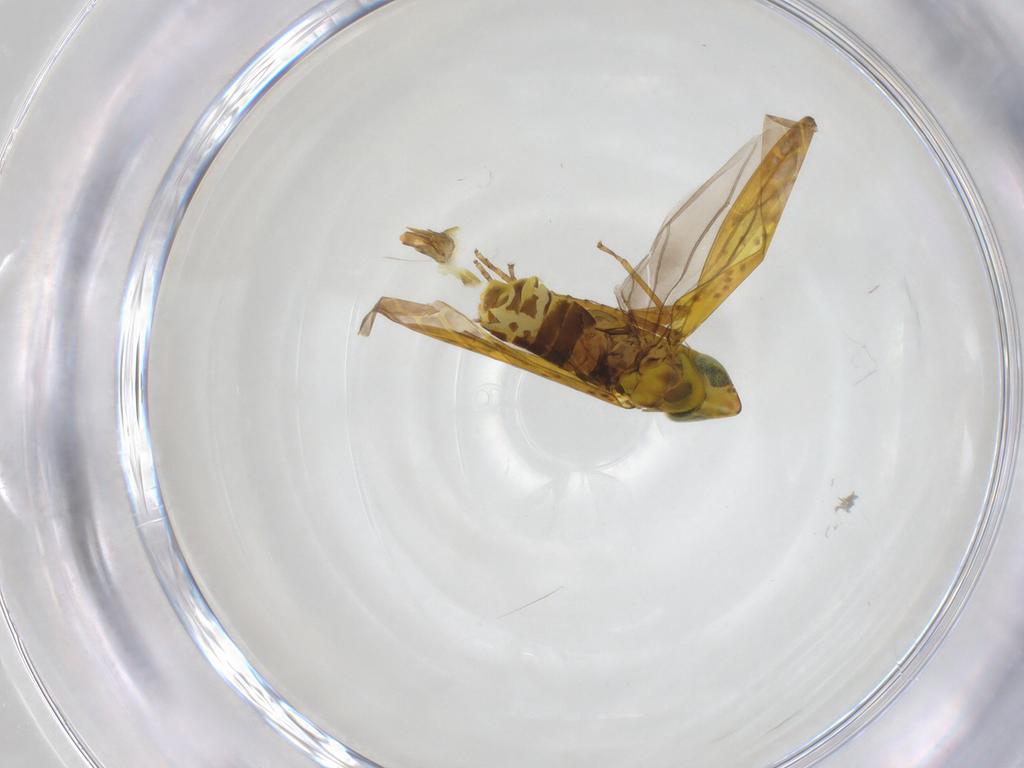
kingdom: Animalia
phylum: Arthropoda
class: Insecta
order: Hemiptera
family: Cicadellidae
